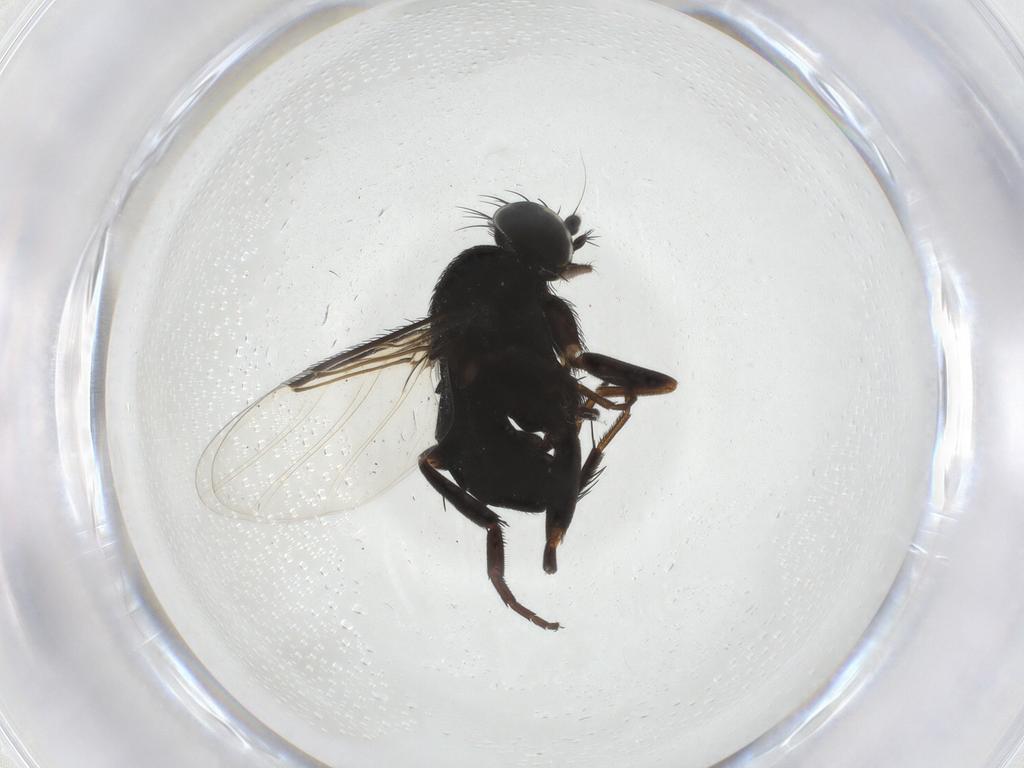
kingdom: Animalia
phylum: Arthropoda
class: Insecta
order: Diptera
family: Phoridae
